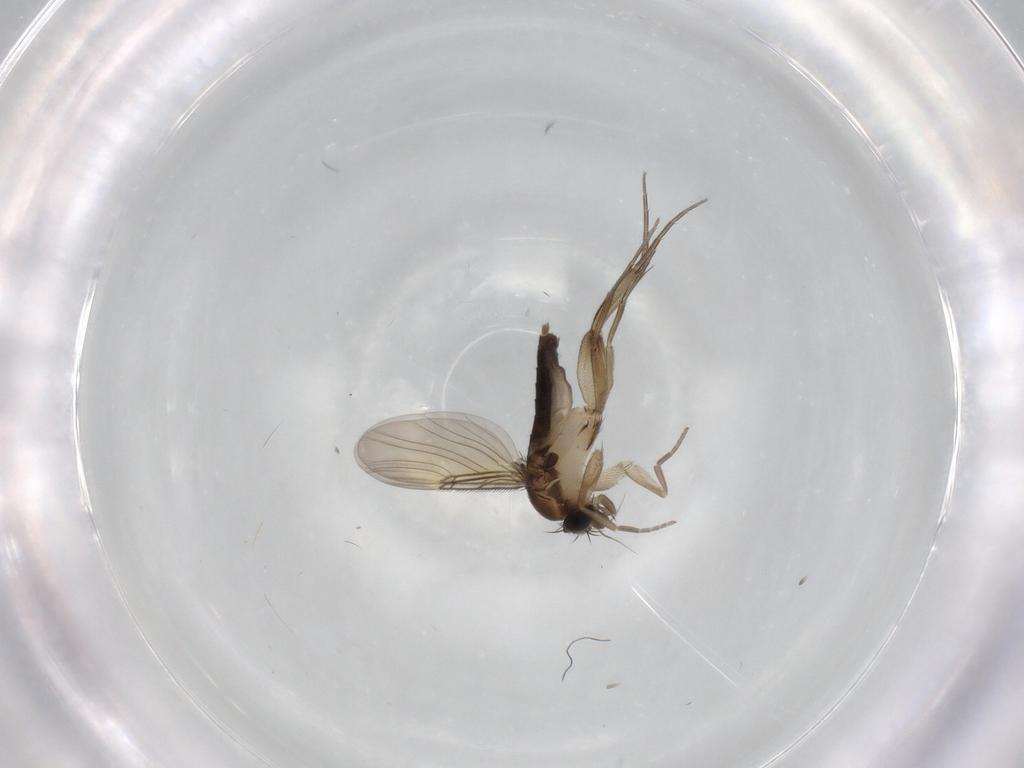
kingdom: Animalia
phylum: Arthropoda
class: Insecta
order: Diptera
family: Phoridae
